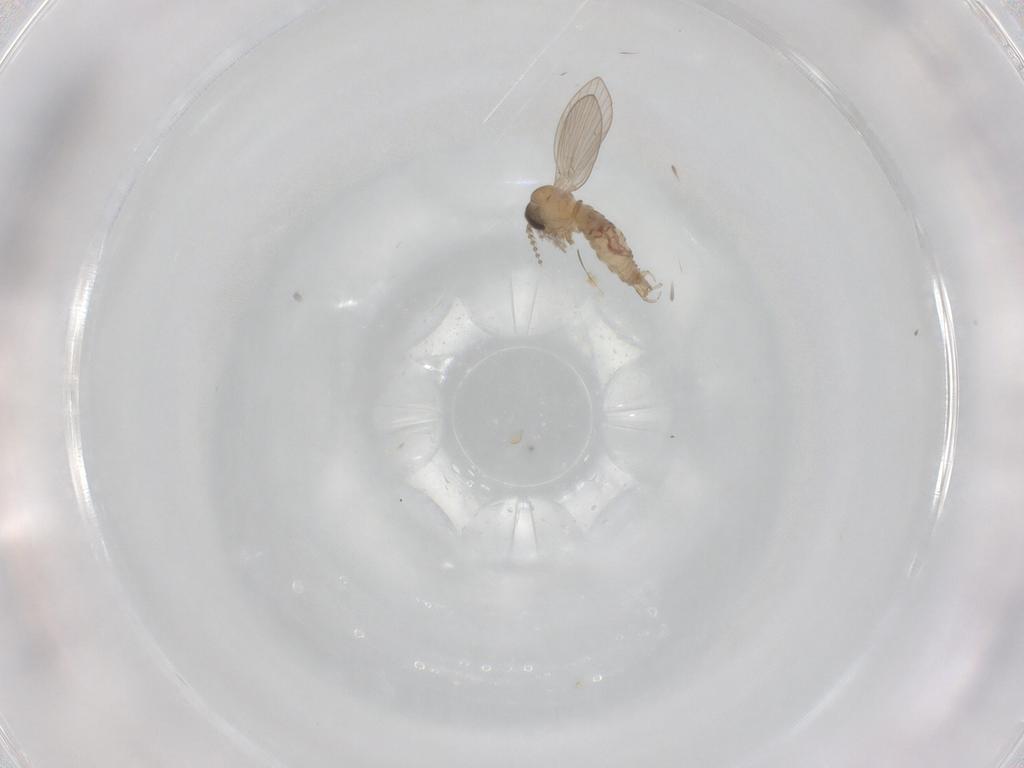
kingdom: Animalia
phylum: Arthropoda
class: Insecta
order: Diptera
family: Psychodidae
